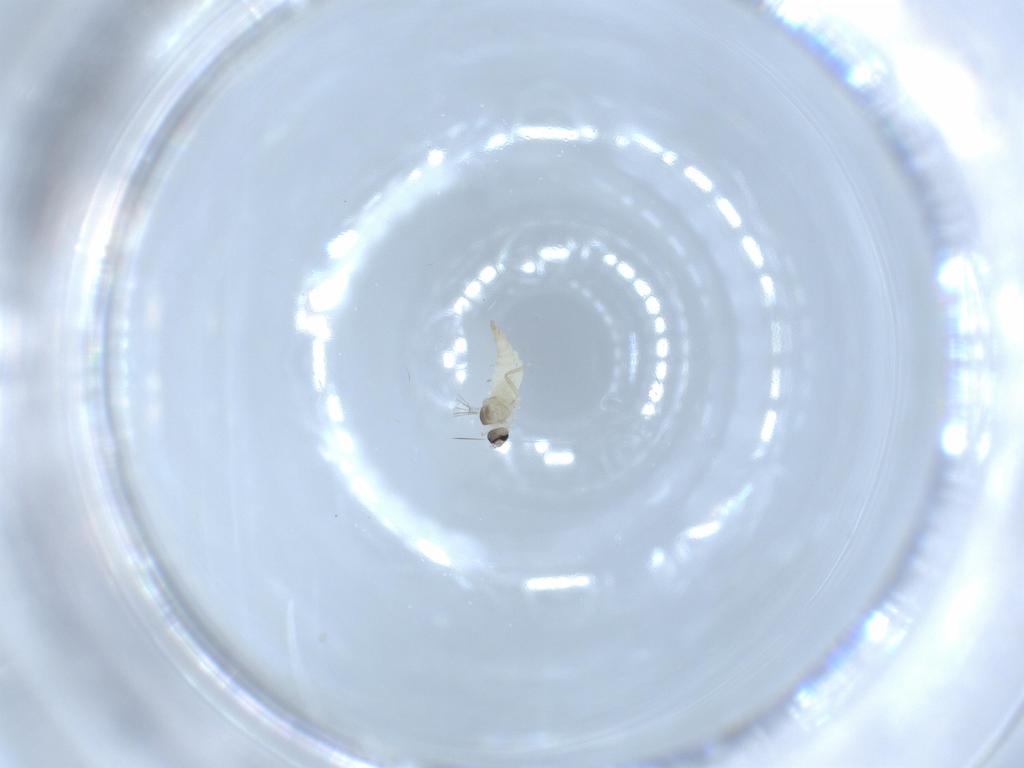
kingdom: Animalia
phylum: Arthropoda
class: Insecta
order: Diptera
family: Cecidomyiidae
